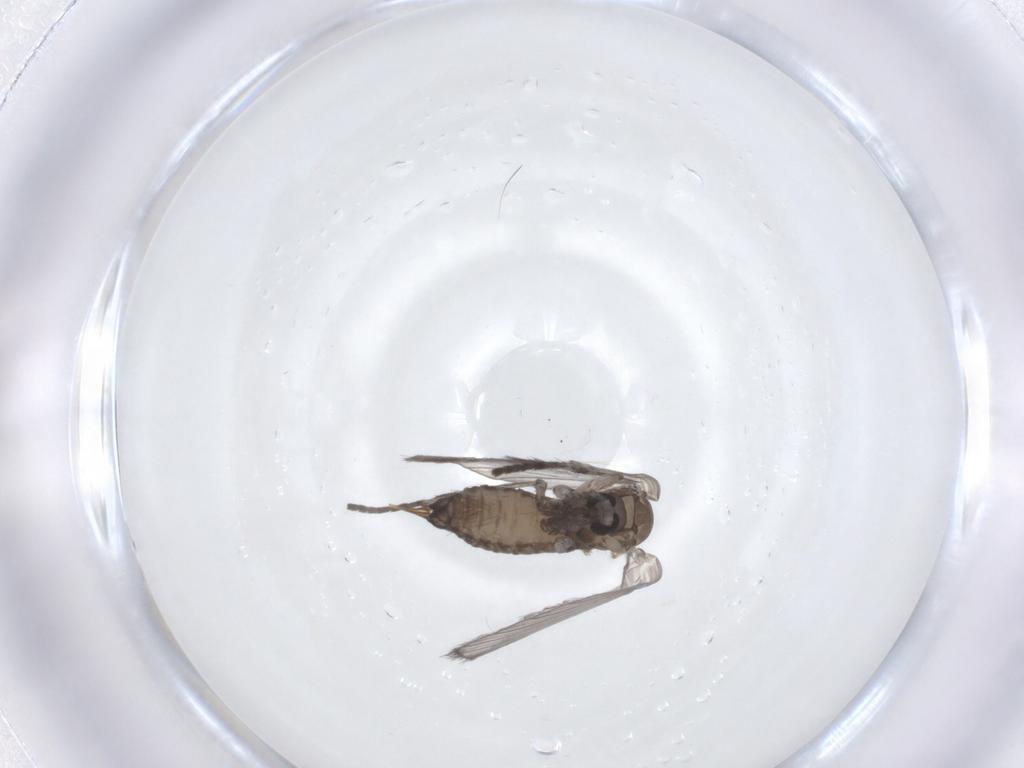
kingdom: Animalia
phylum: Arthropoda
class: Insecta
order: Diptera
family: Psychodidae
